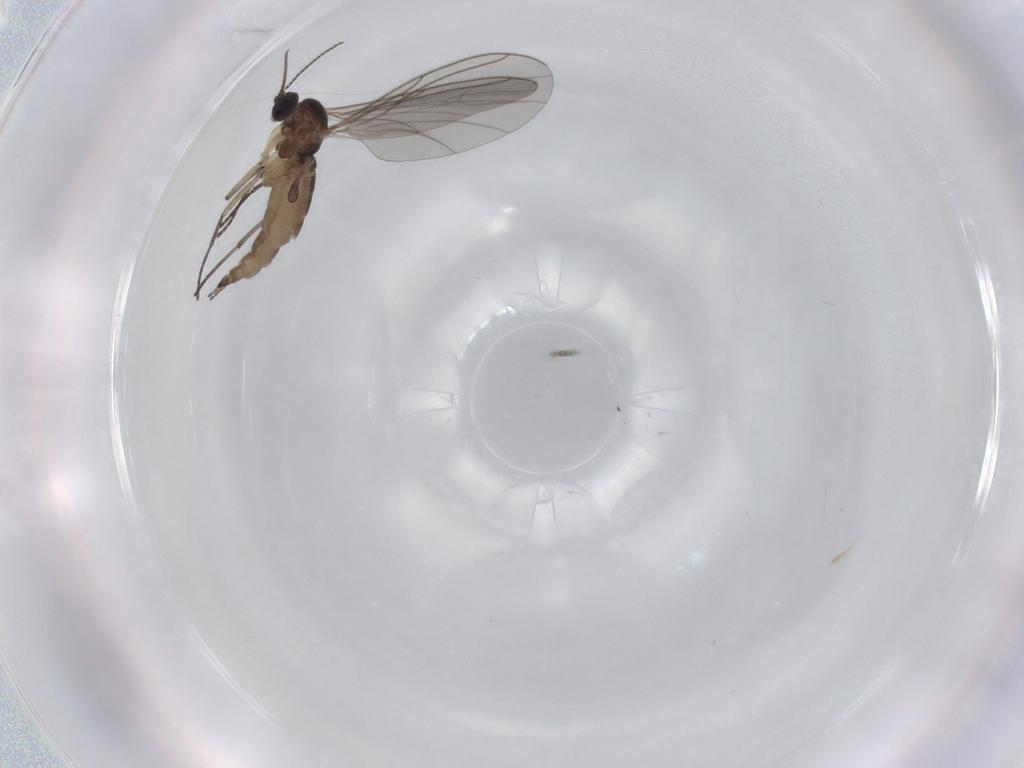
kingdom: Animalia
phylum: Arthropoda
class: Insecta
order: Diptera
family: Sciaridae
